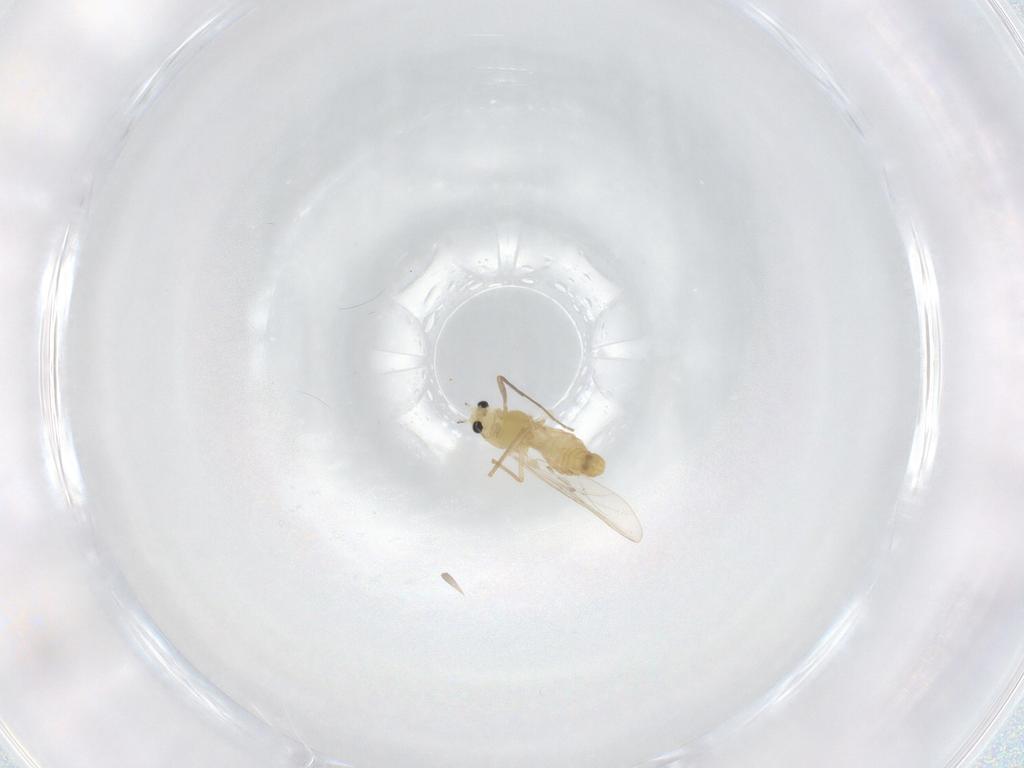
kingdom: Animalia
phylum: Arthropoda
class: Insecta
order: Diptera
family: Chironomidae
